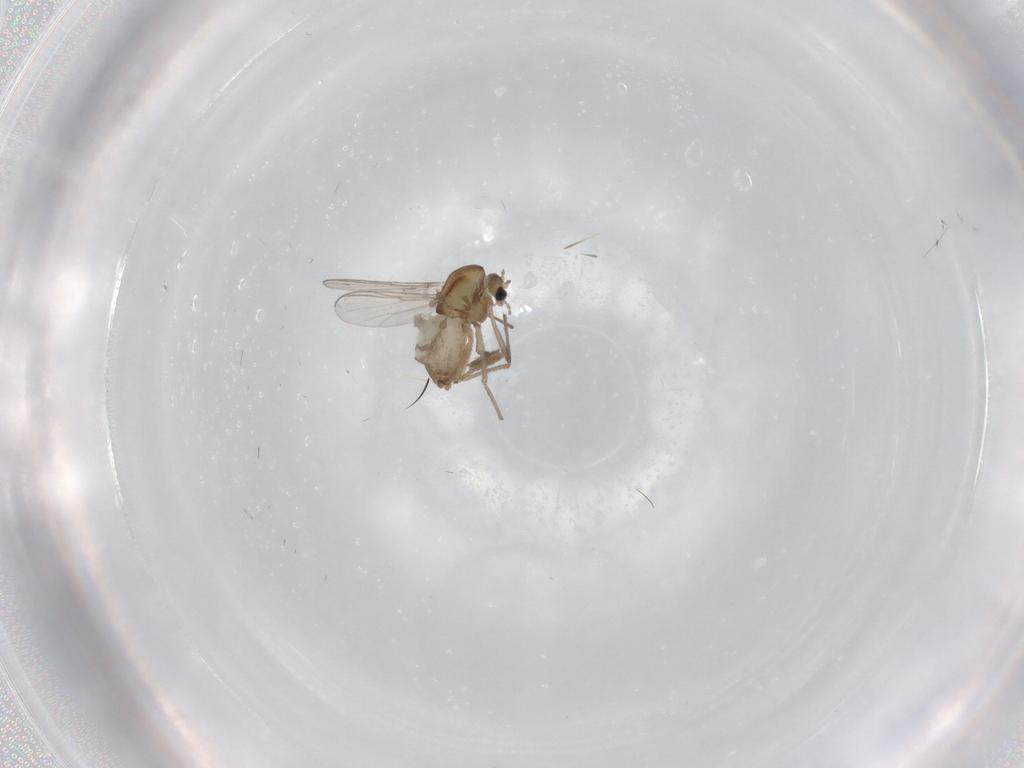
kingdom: Animalia
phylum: Arthropoda
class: Insecta
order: Diptera
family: Chironomidae
